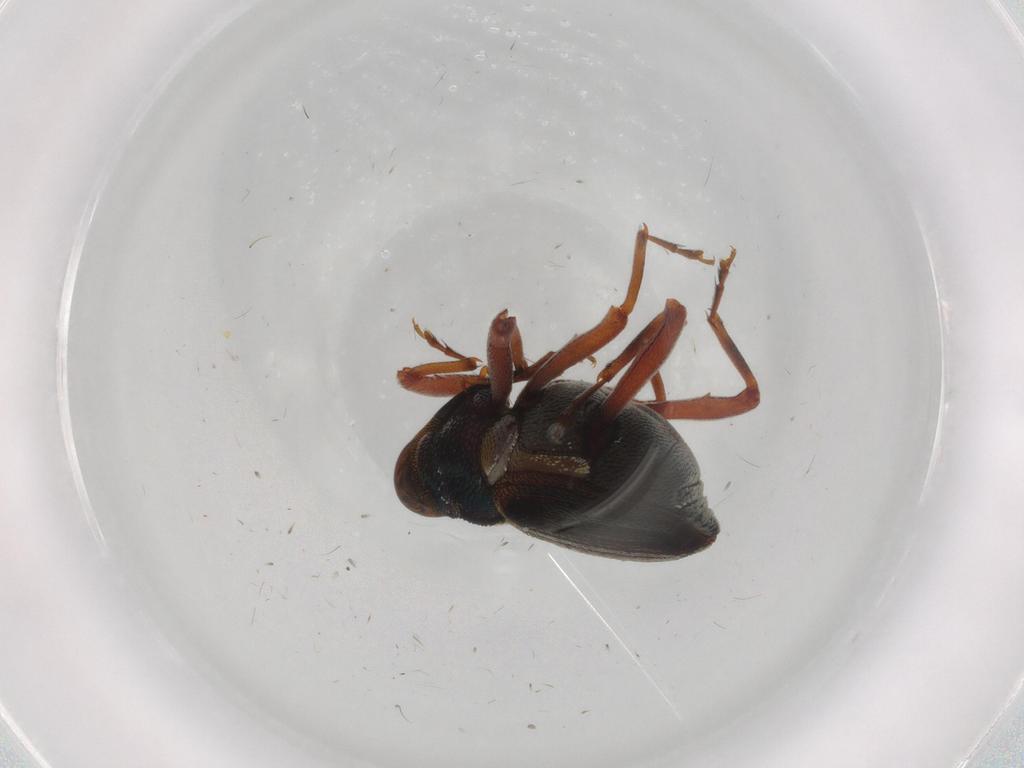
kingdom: Animalia
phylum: Arthropoda
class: Insecta
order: Coleoptera
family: Curculionidae
